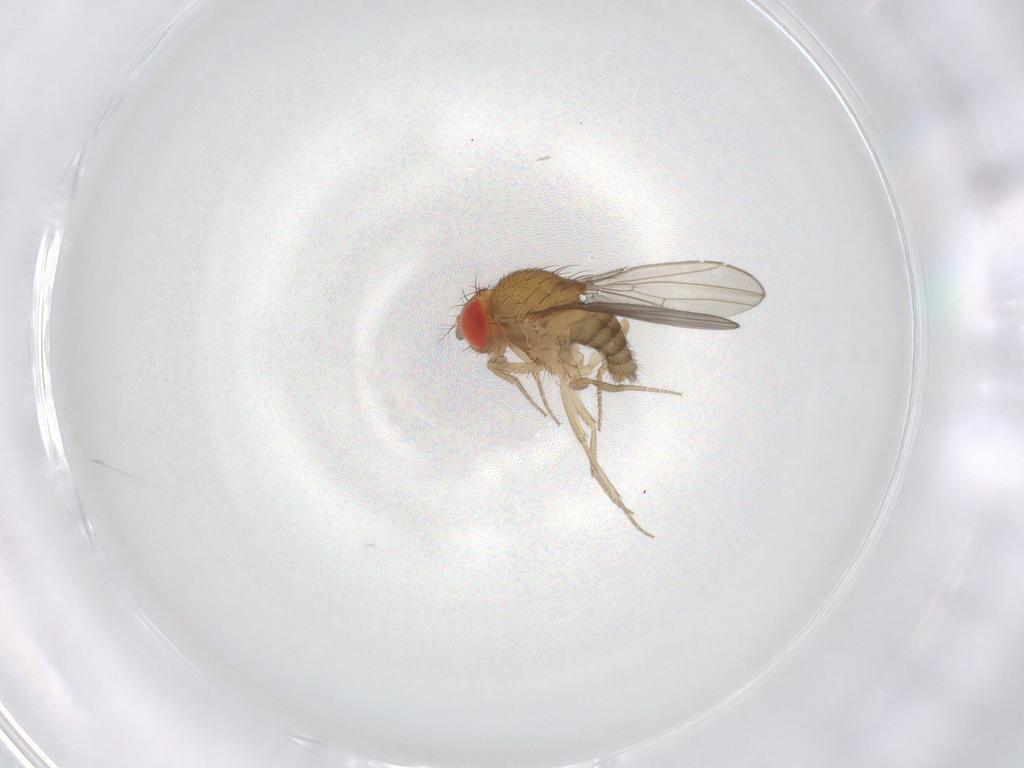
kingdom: Animalia
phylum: Arthropoda
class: Insecta
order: Diptera
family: Drosophilidae
